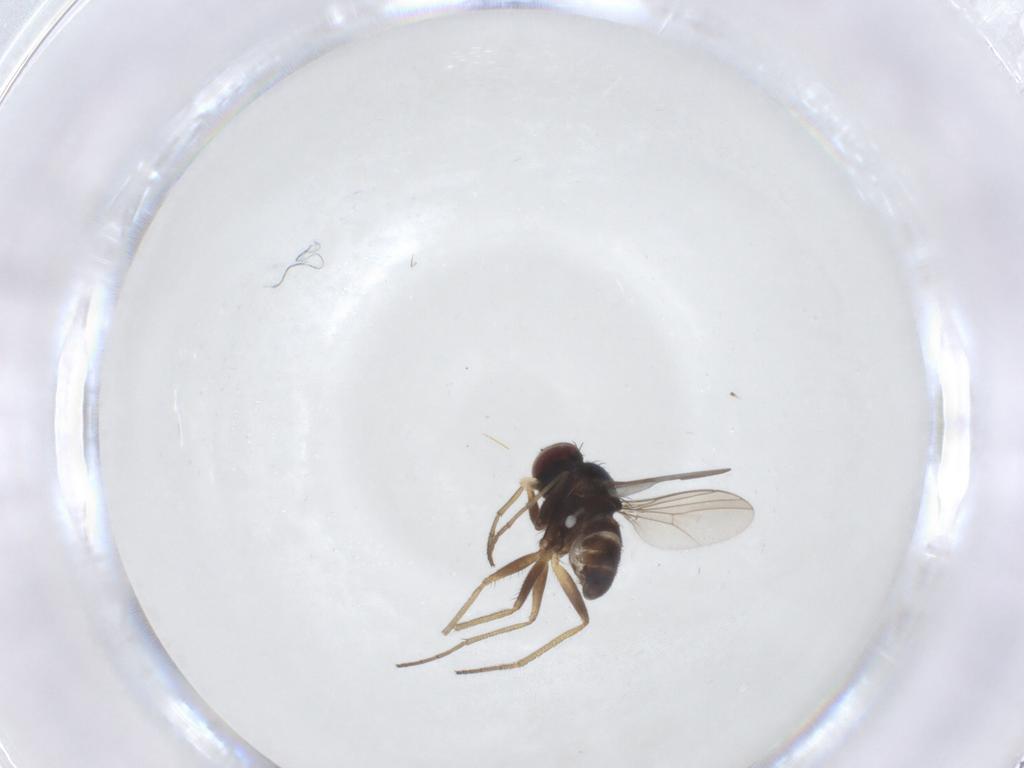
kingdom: Animalia
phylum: Arthropoda
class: Insecta
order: Diptera
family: Dolichopodidae
